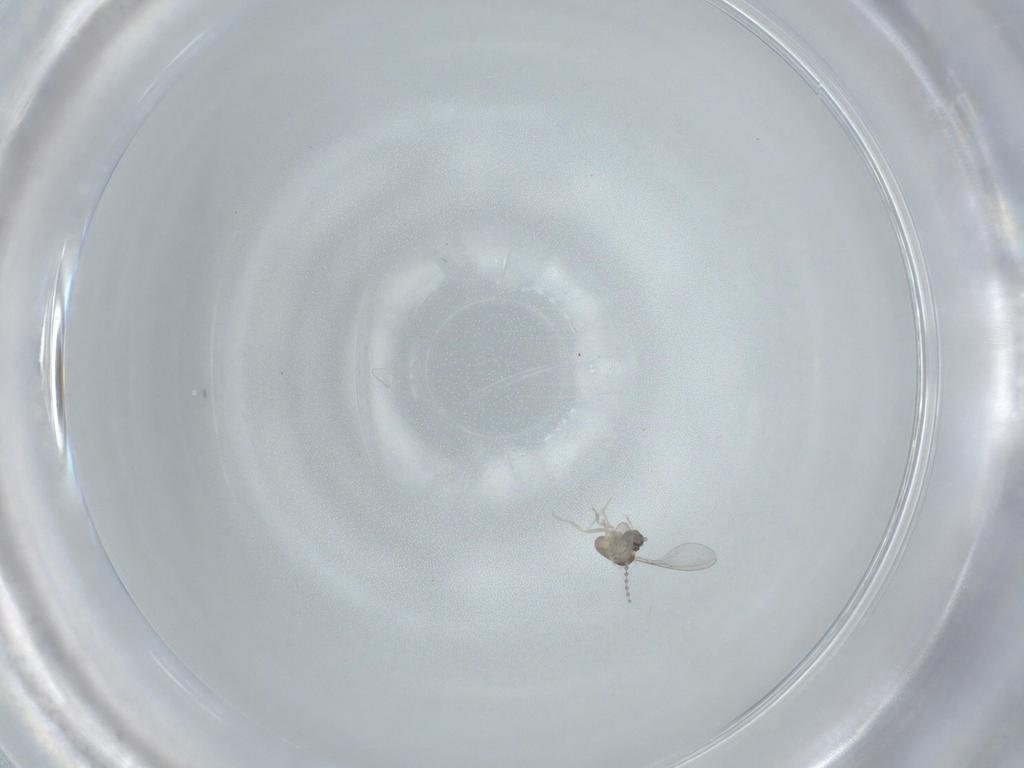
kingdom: Animalia
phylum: Arthropoda
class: Insecta
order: Diptera
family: Cecidomyiidae
